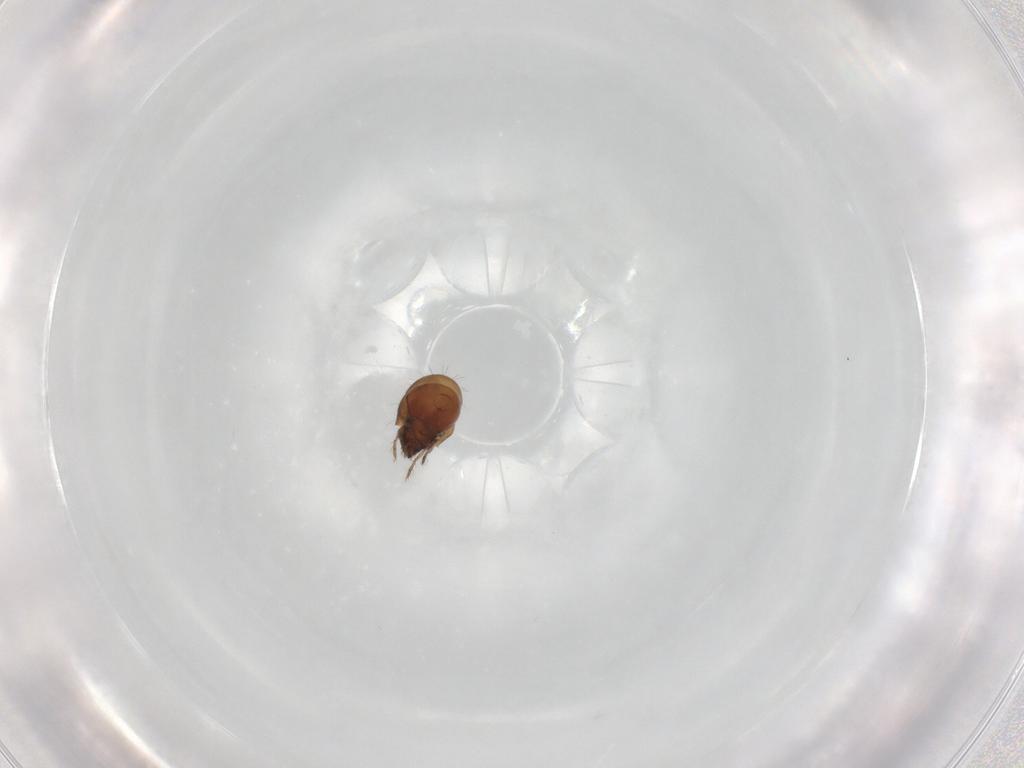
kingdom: Animalia
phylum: Arthropoda
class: Arachnida
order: Sarcoptiformes
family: Humerobatidae
